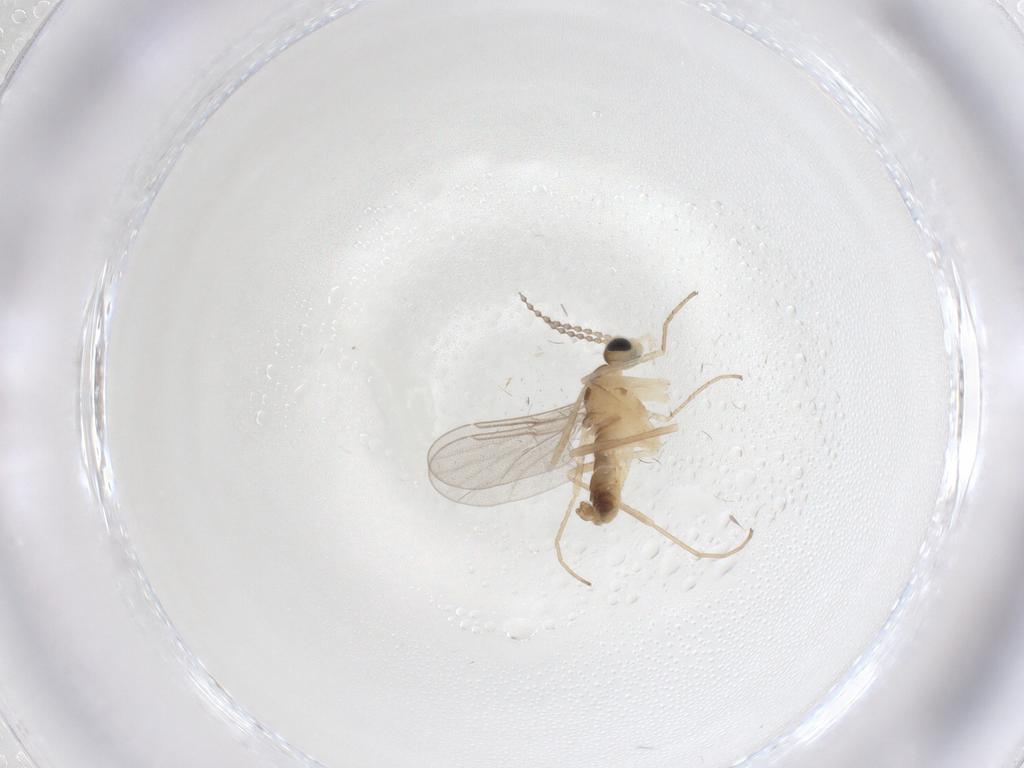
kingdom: Animalia
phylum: Arthropoda
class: Insecta
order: Diptera
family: Cecidomyiidae
